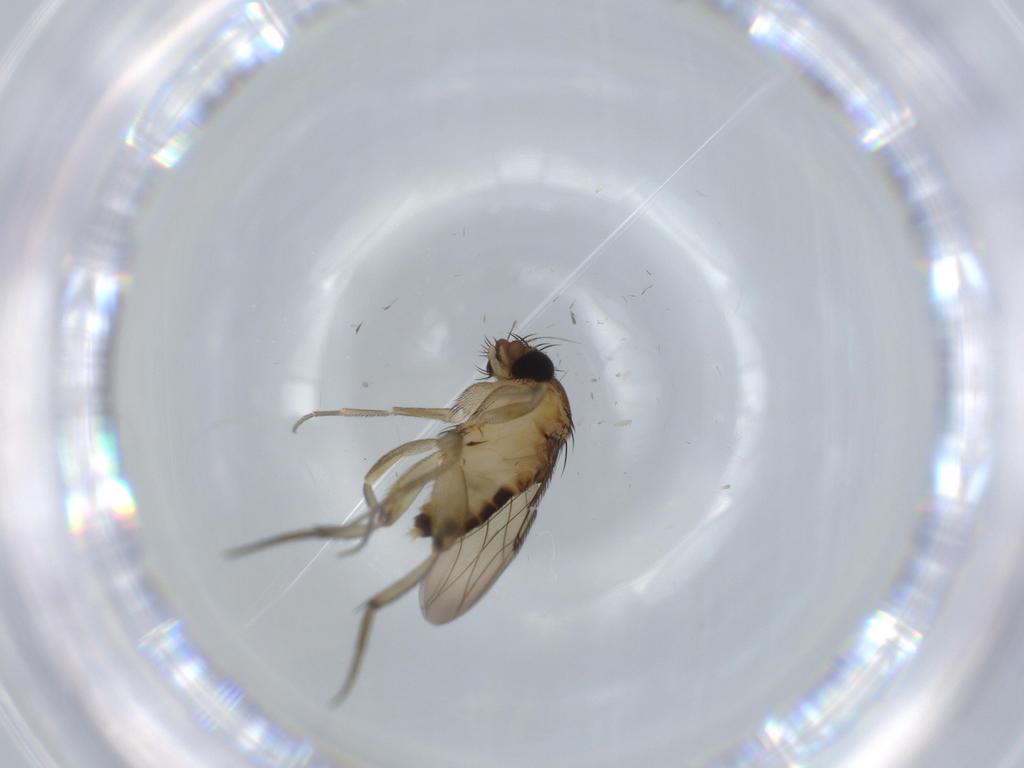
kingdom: Animalia
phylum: Arthropoda
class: Insecta
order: Diptera
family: Phoridae
